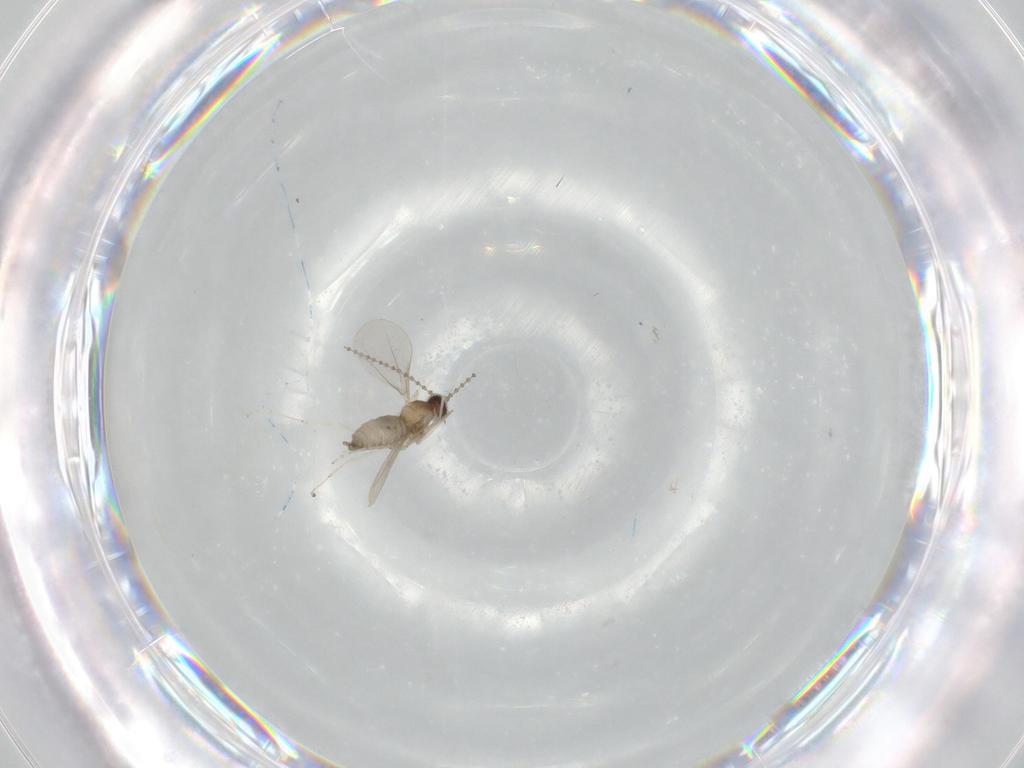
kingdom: Animalia
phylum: Arthropoda
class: Insecta
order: Diptera
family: Cecidomyiidae
